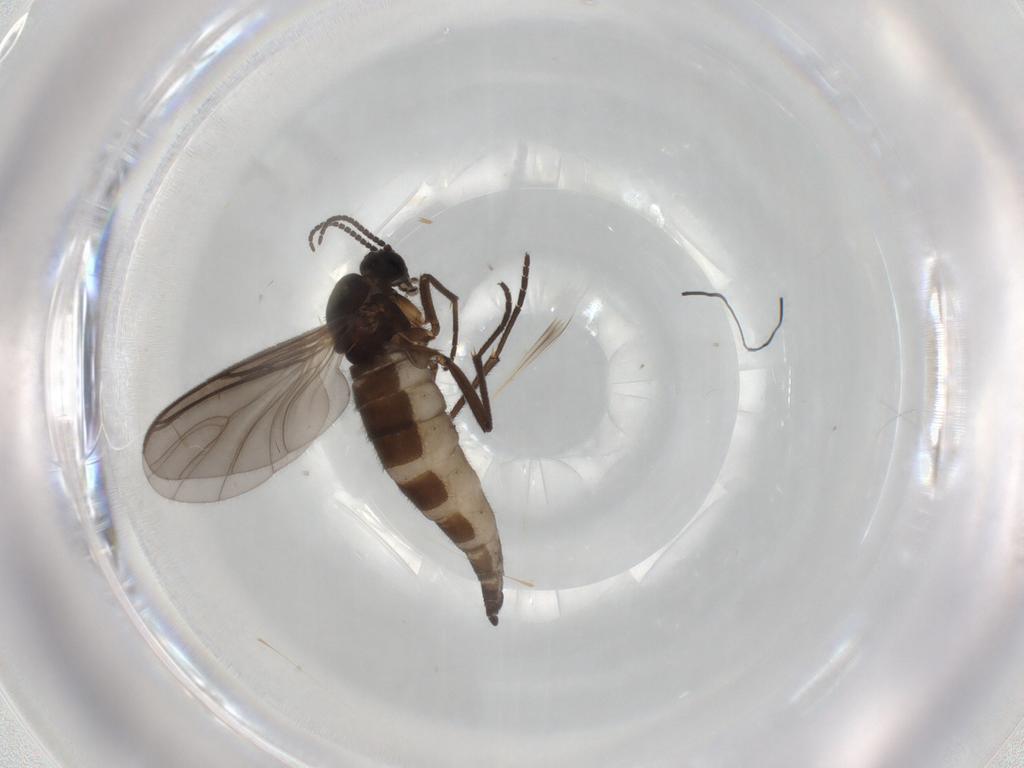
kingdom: Animalia
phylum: Arthropoda
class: Insecta
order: Diptera
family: Sciaridae
